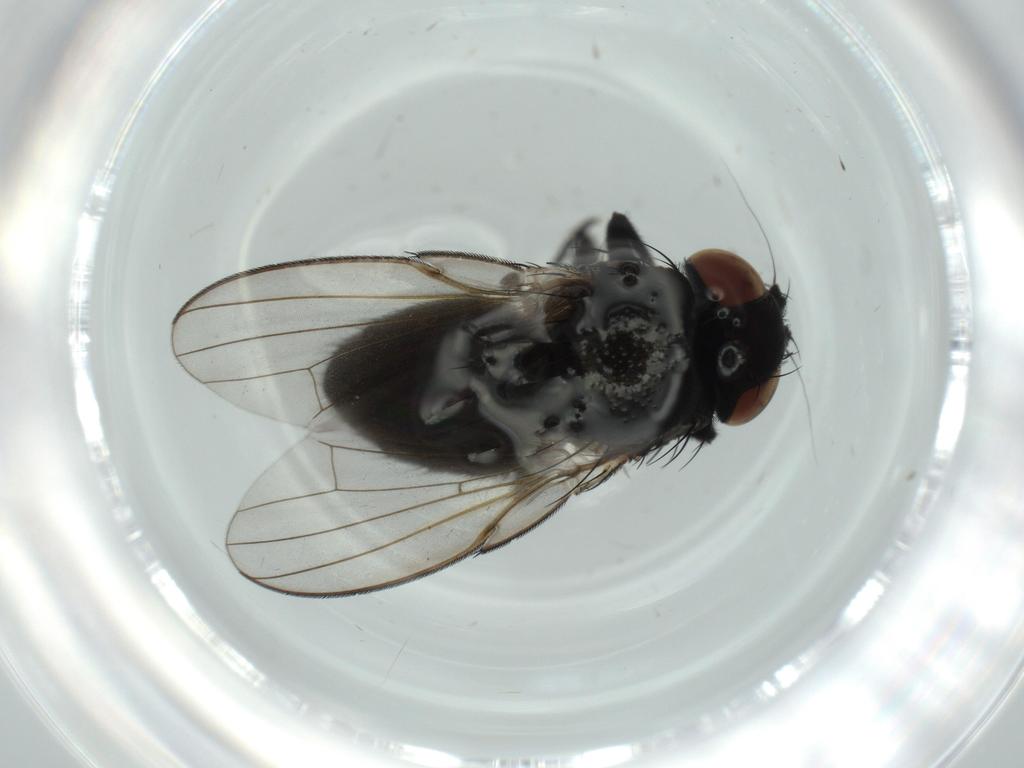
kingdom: Animalia
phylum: Arthropoda
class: Insecta
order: Diptera
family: Milichiidae
